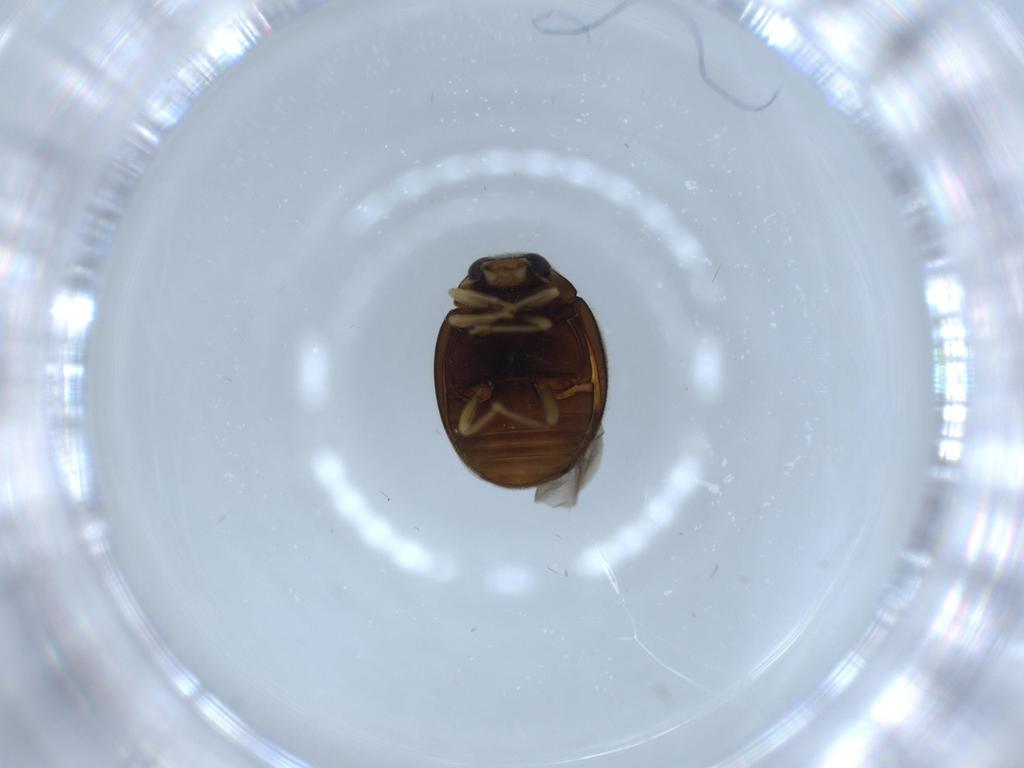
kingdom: Animalia
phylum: Arthropoda
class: Insecta
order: Coleoptera
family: Coccinellidae
